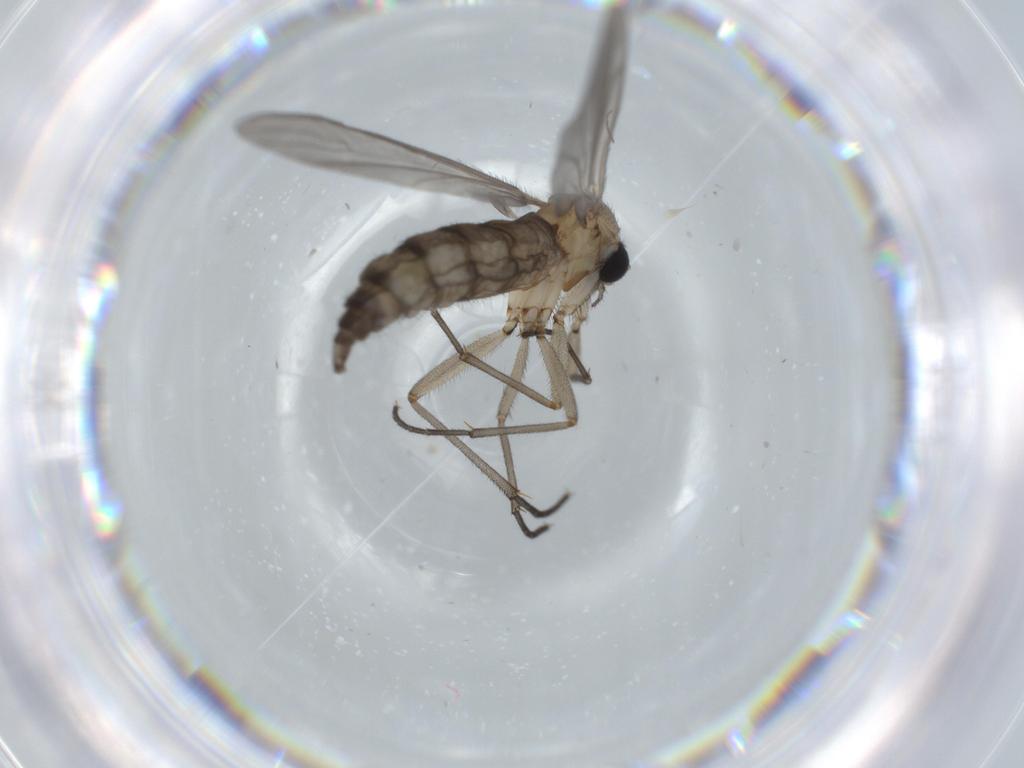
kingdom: Animalia
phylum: Arthropoda
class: Insecta
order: Diptera
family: Sciaridae
